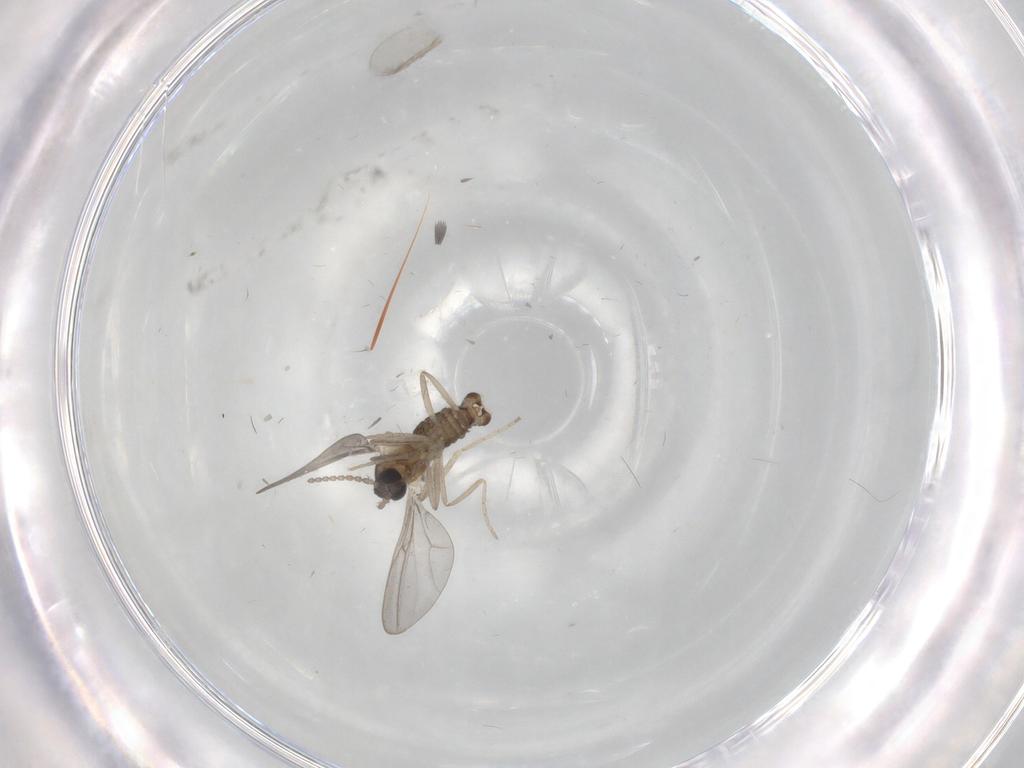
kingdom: Animalia
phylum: Arthropoda
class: Insecta
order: Diptera
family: Cecidomyiidae
